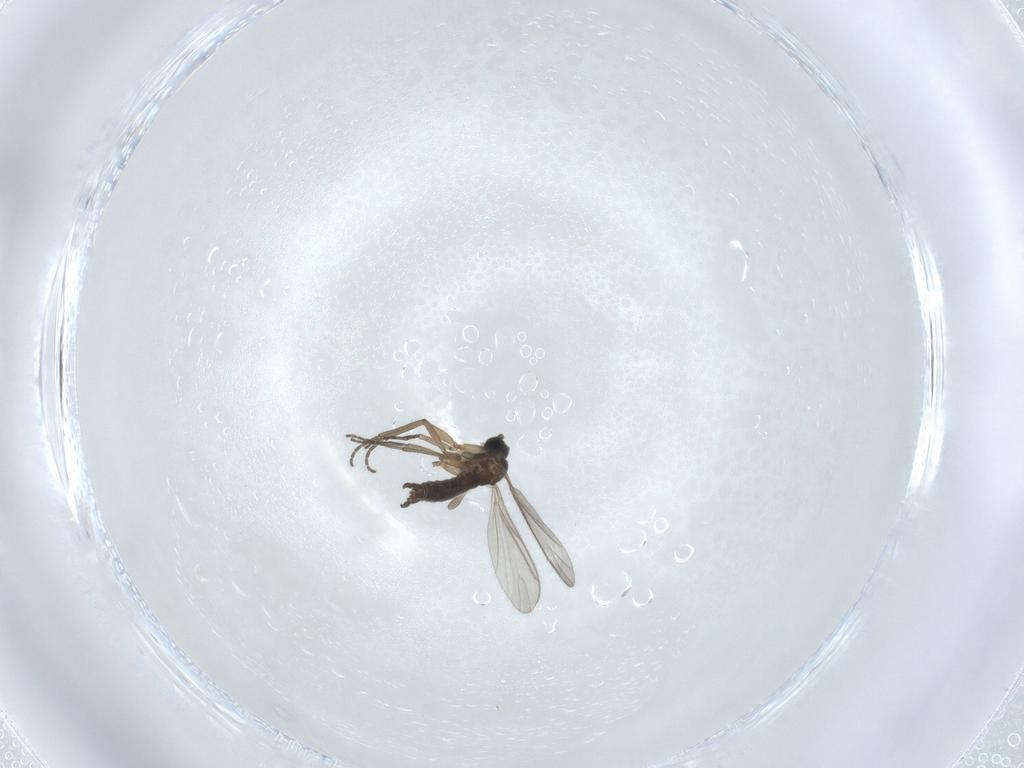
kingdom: Animalia
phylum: Arthropoda
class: Insecta
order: Diptera
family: Sciaridae
